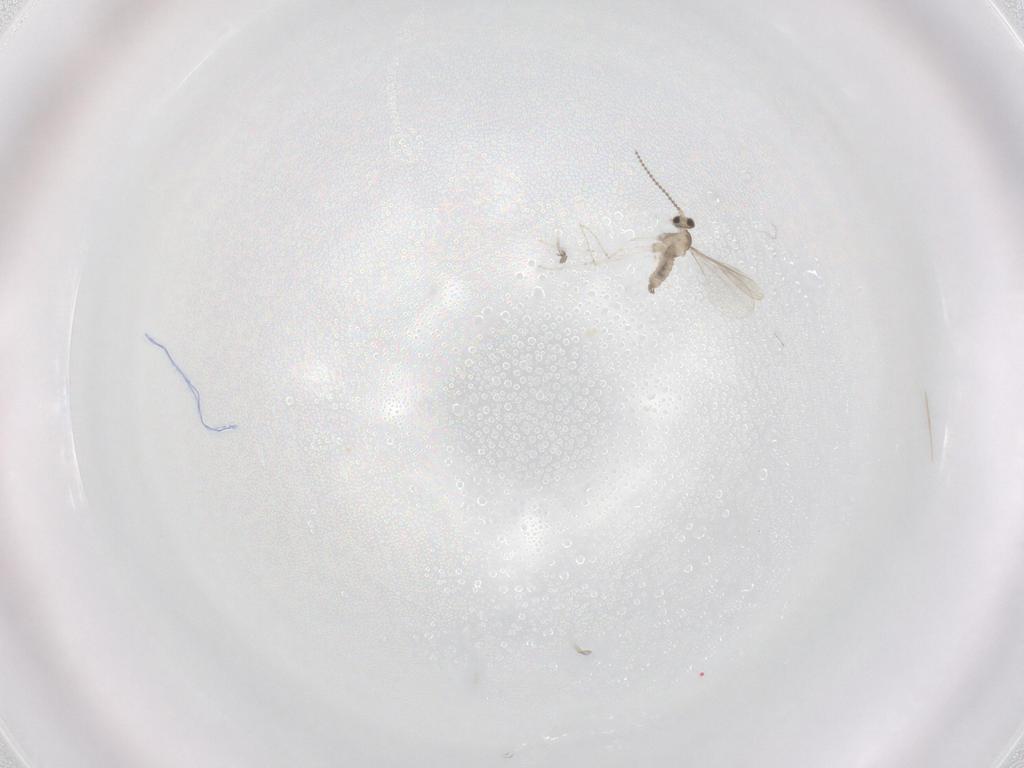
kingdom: Animalia
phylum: Arthropoda
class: Insecta
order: Diptera
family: Cecidomyiidae
